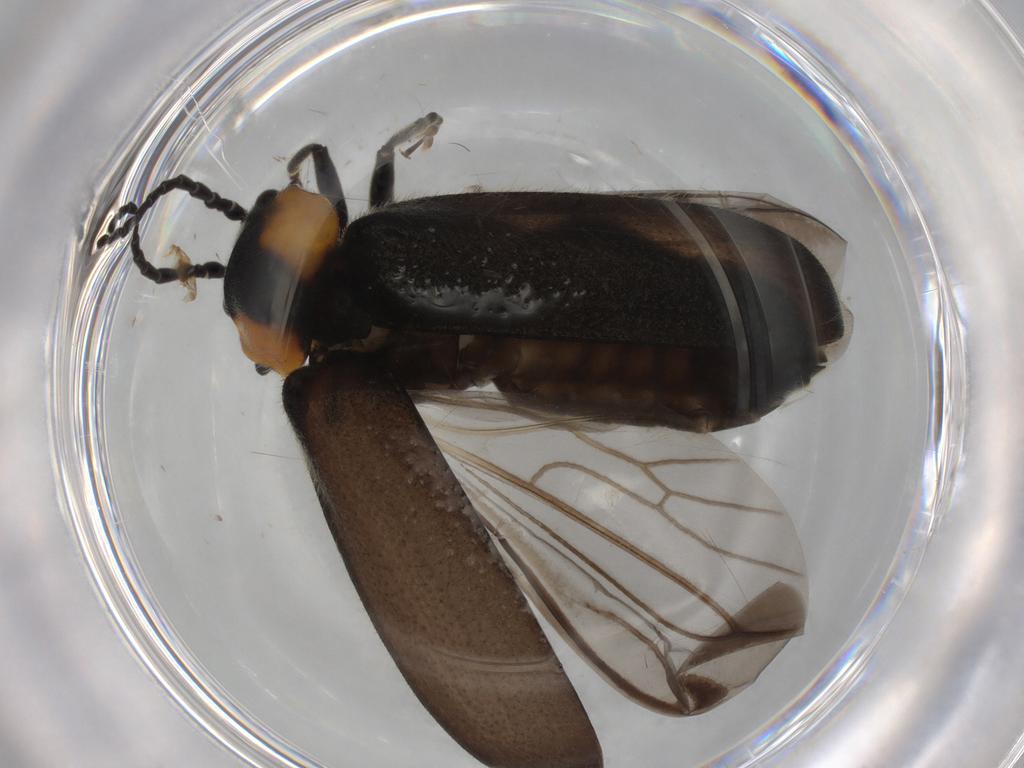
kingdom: Animalia
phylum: Arthropoda
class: Insecta
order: Coleoptera
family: Cantharidae
